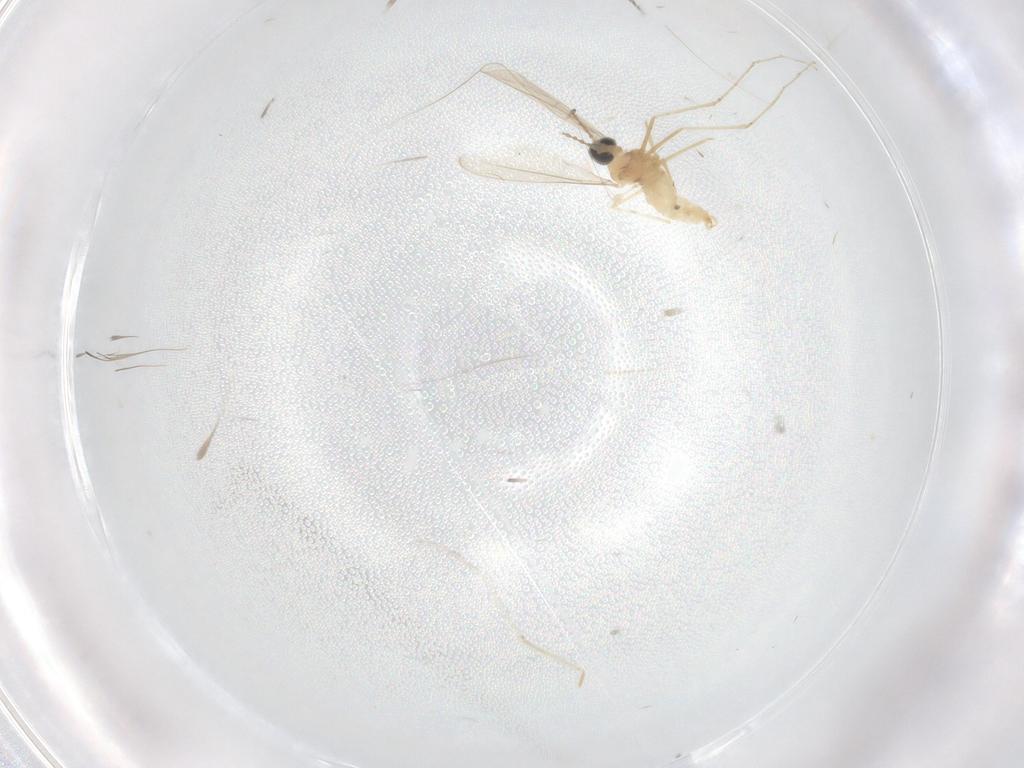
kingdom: Animalia
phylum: Arthropoda
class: Insecta
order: Diptera
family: Cecidomyiidae
